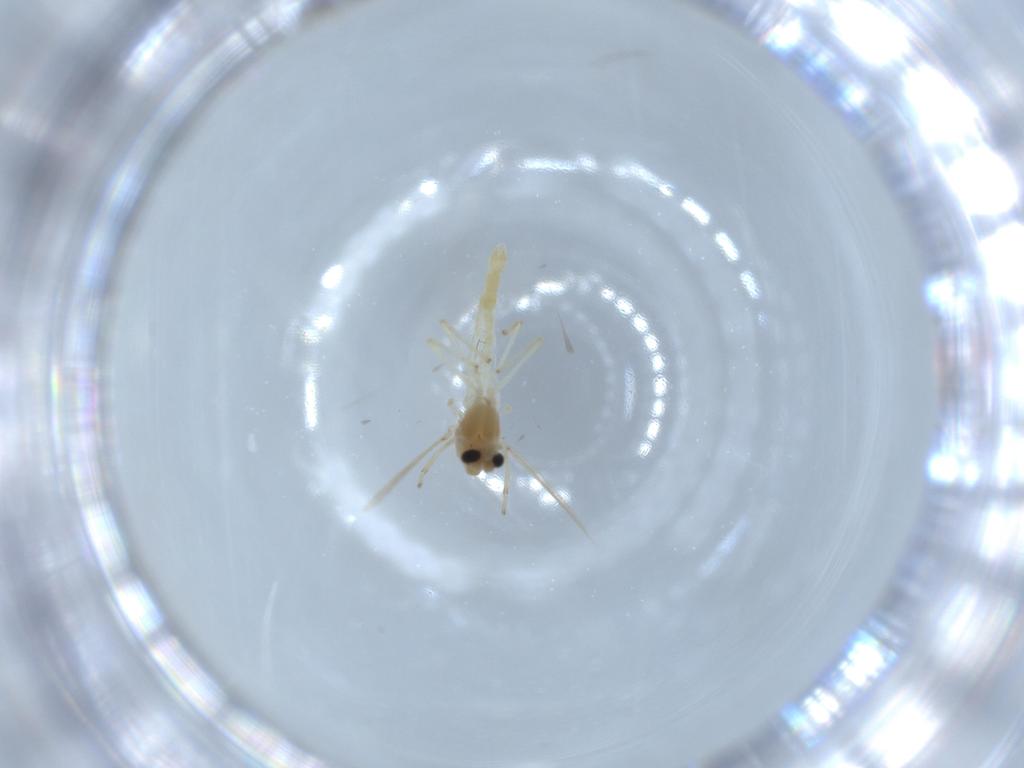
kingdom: Animalia
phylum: Arthropoda
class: Insecta
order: Diptera
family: Chironomidae
